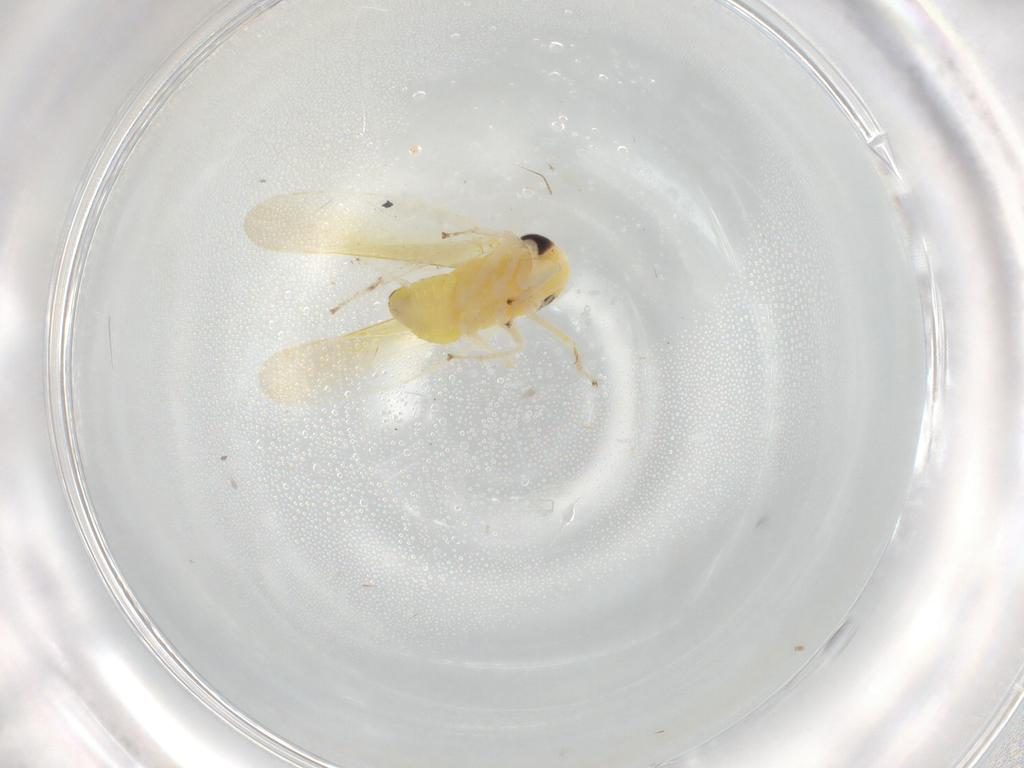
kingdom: Animalia
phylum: Arthropoda
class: Insecta
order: Hemiptera
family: Cicadellidae
